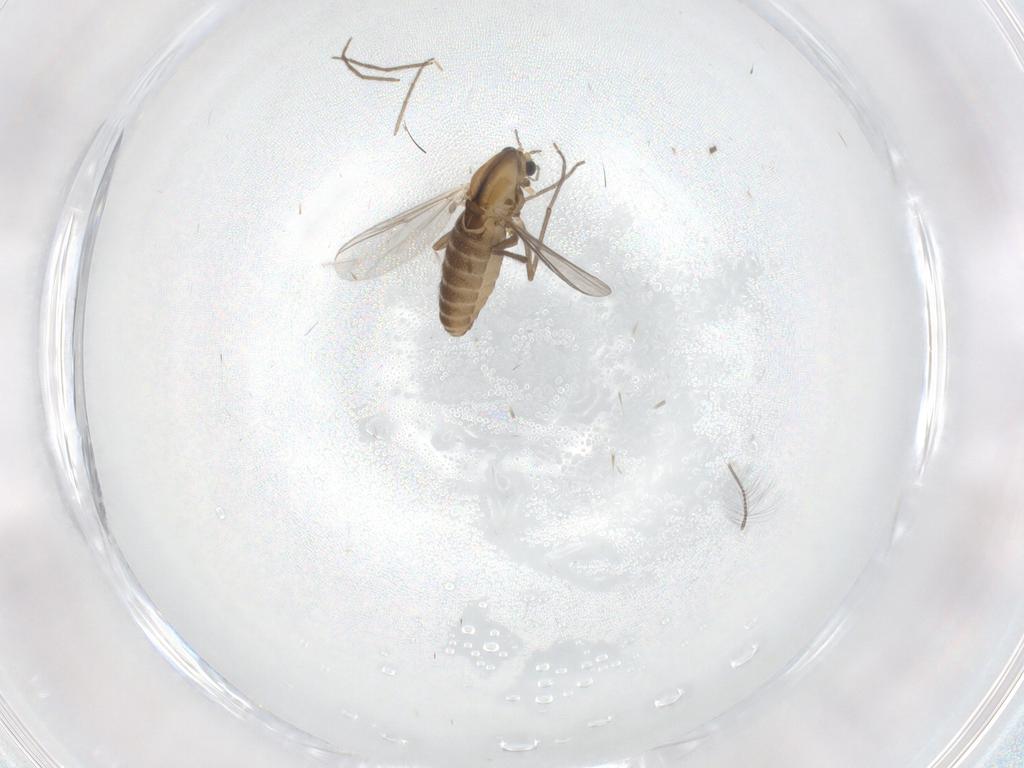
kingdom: Animalia
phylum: Arthropoda
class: Insecta
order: Diptera
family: Chironomidae
